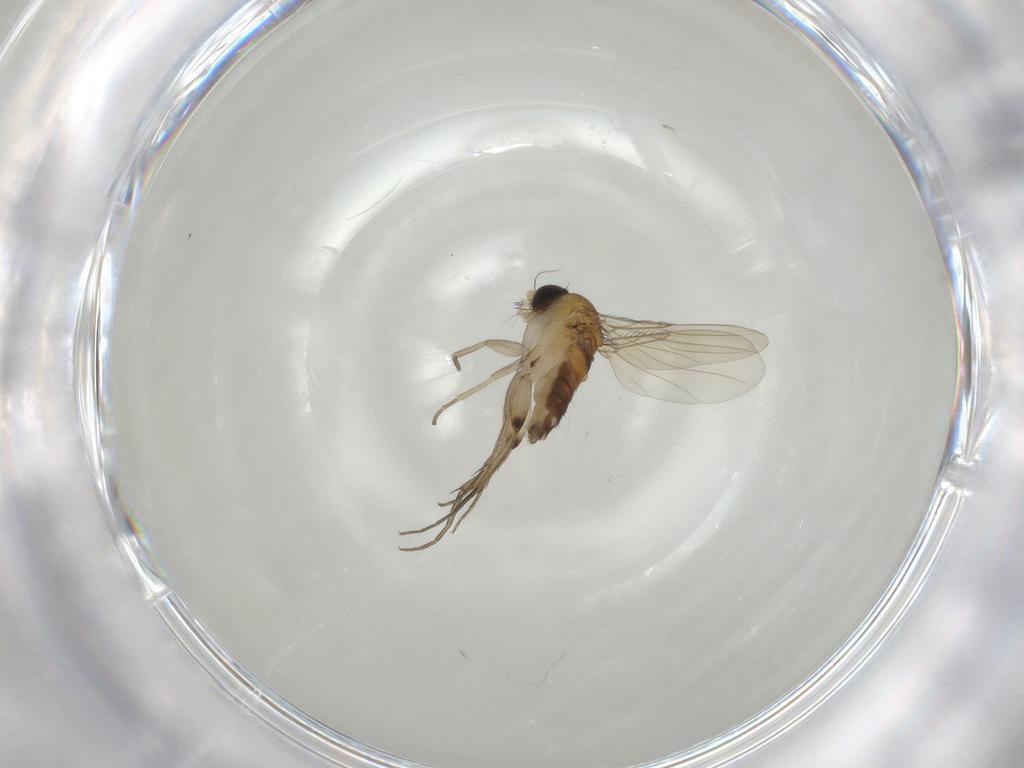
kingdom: Animalia
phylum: Arthropoda
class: Insecta
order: Diptera
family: Phoridae
